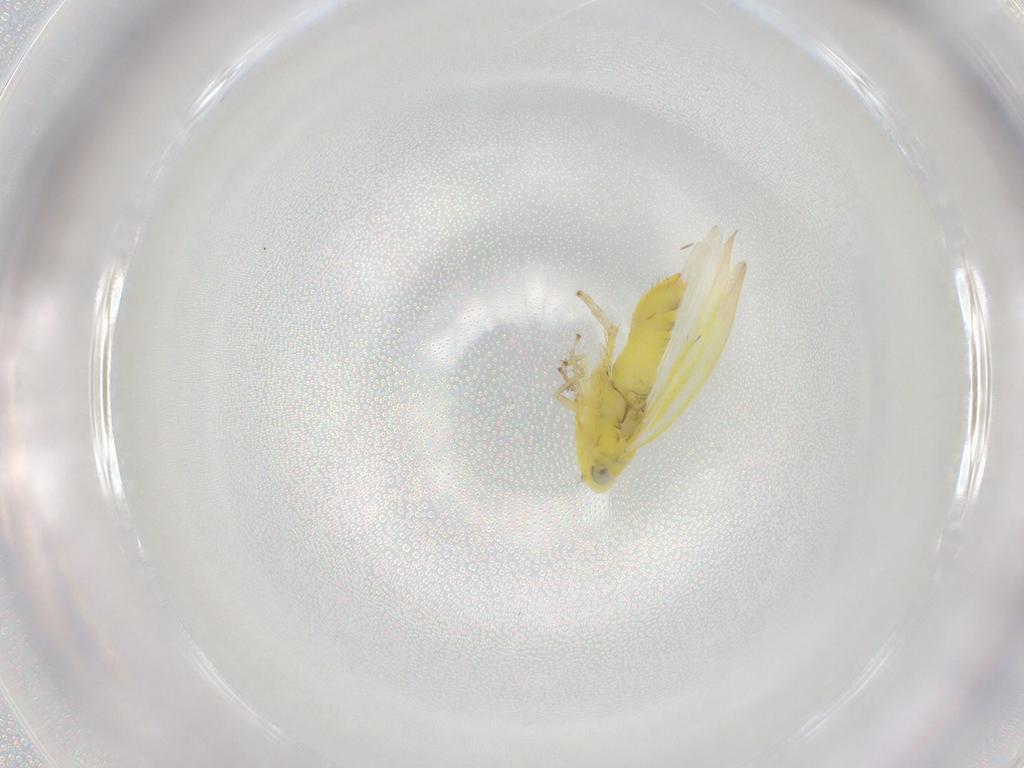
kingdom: Animalia
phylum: Arthropoda
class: Insecta
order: Hemiptera
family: Cicadellidae
